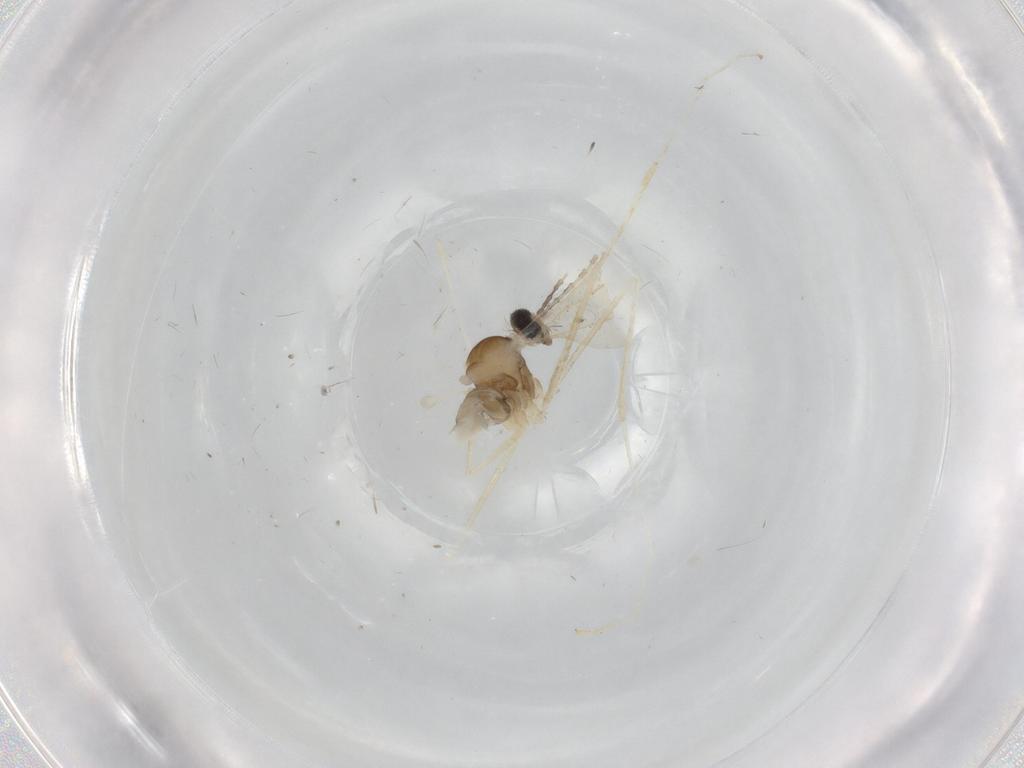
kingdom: Animalia
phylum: Arthropoda
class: Insecta
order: Diptera
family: Cecidomyiidae
